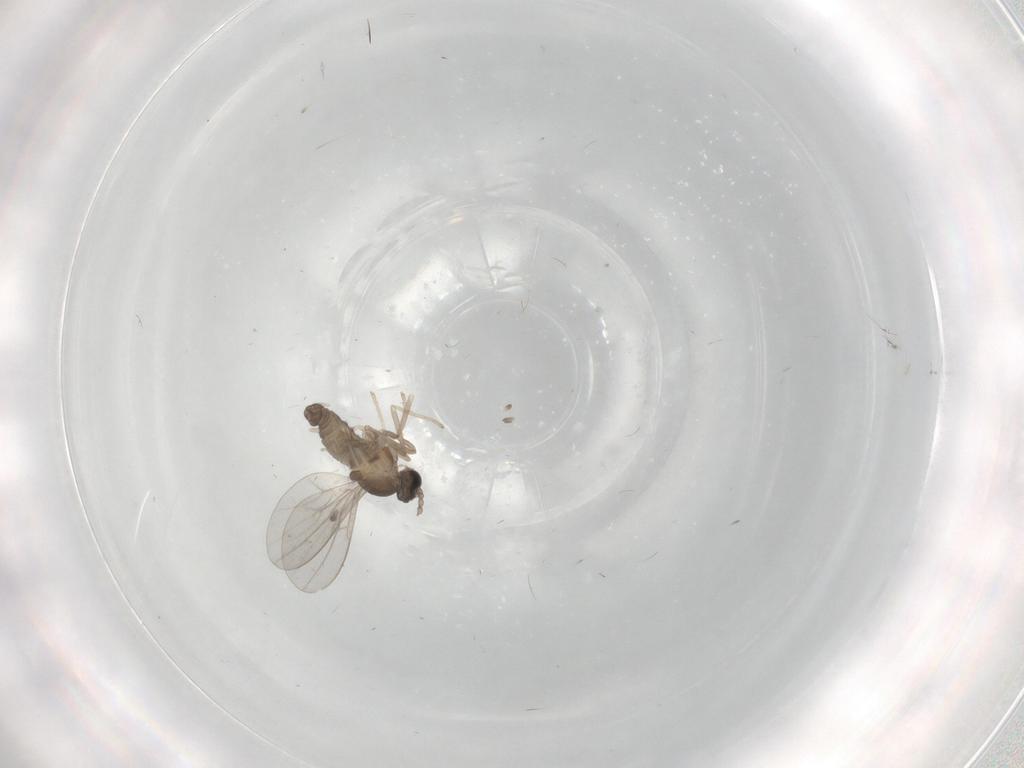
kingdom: Animalia
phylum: Arthropoda
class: Insecta
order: Diptera
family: Cecidomyiidae
